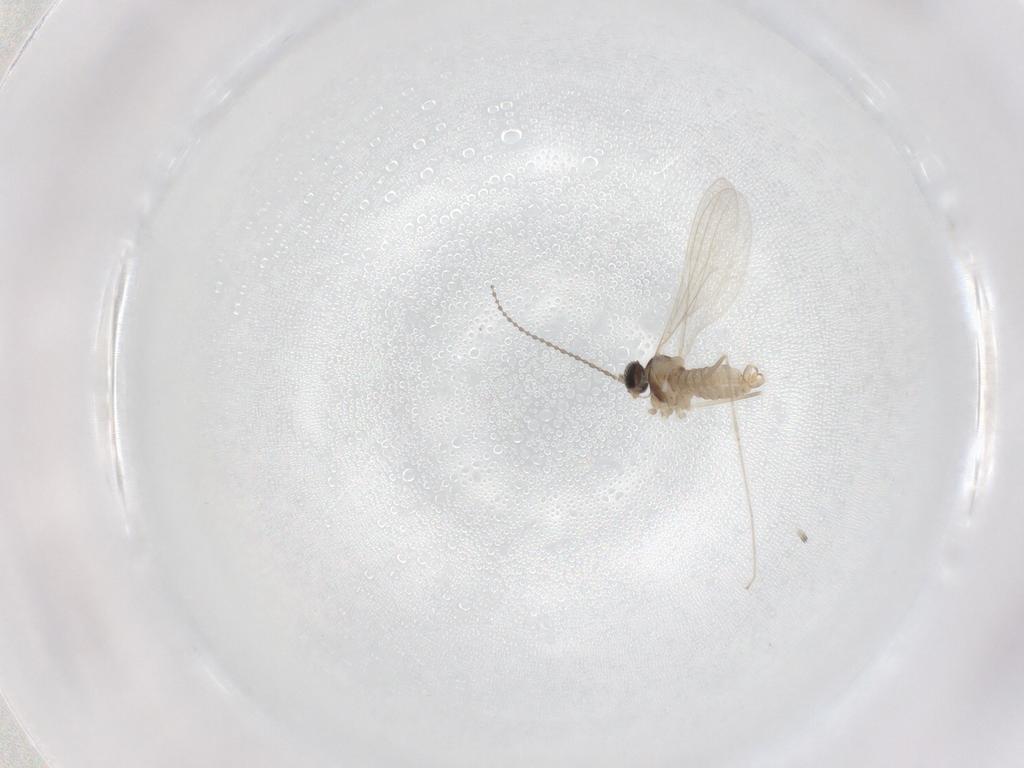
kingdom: Animalia
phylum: Arthropoda
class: Insecta
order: Diptera
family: Cecidomyiidae
